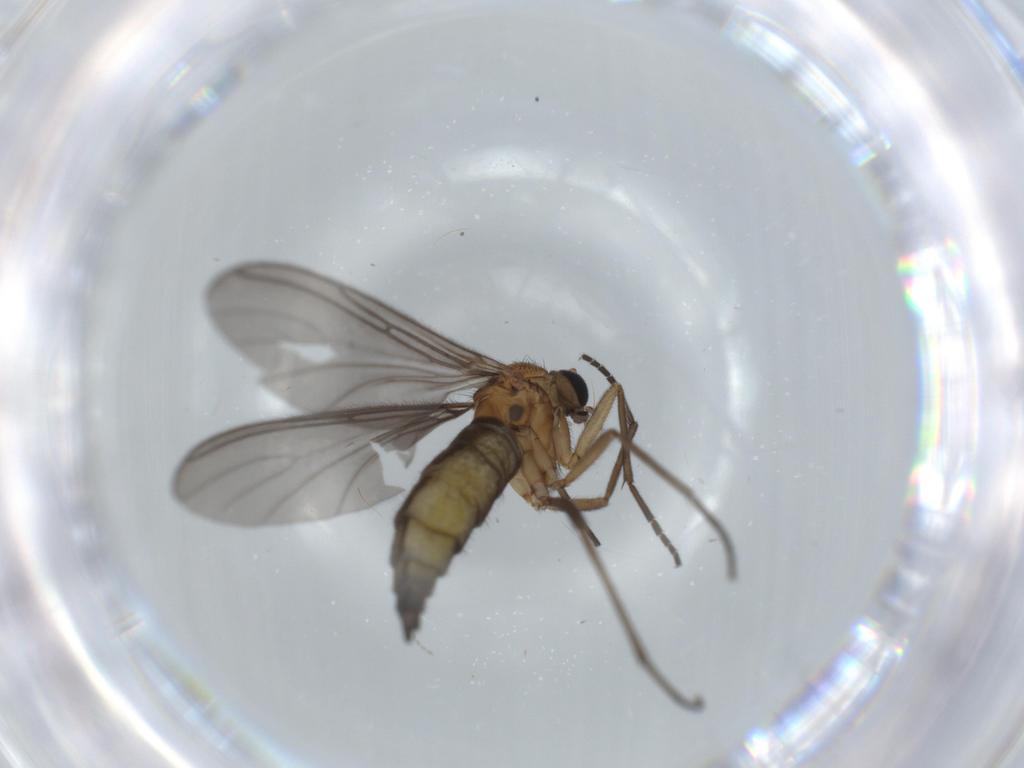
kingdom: Animalia
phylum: Arthropoda
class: Insecta
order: Diptera
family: Sciaridae
